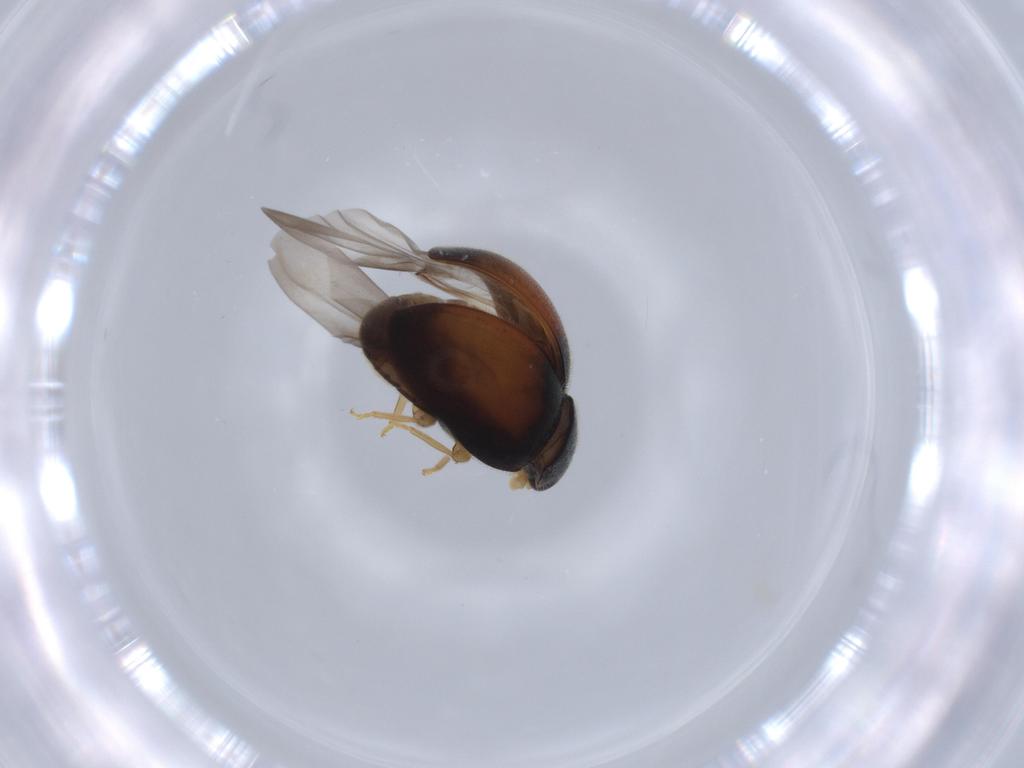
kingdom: Animalia
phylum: Arthropoda
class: Insecta
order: Coleoptera
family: Coccinellidae
